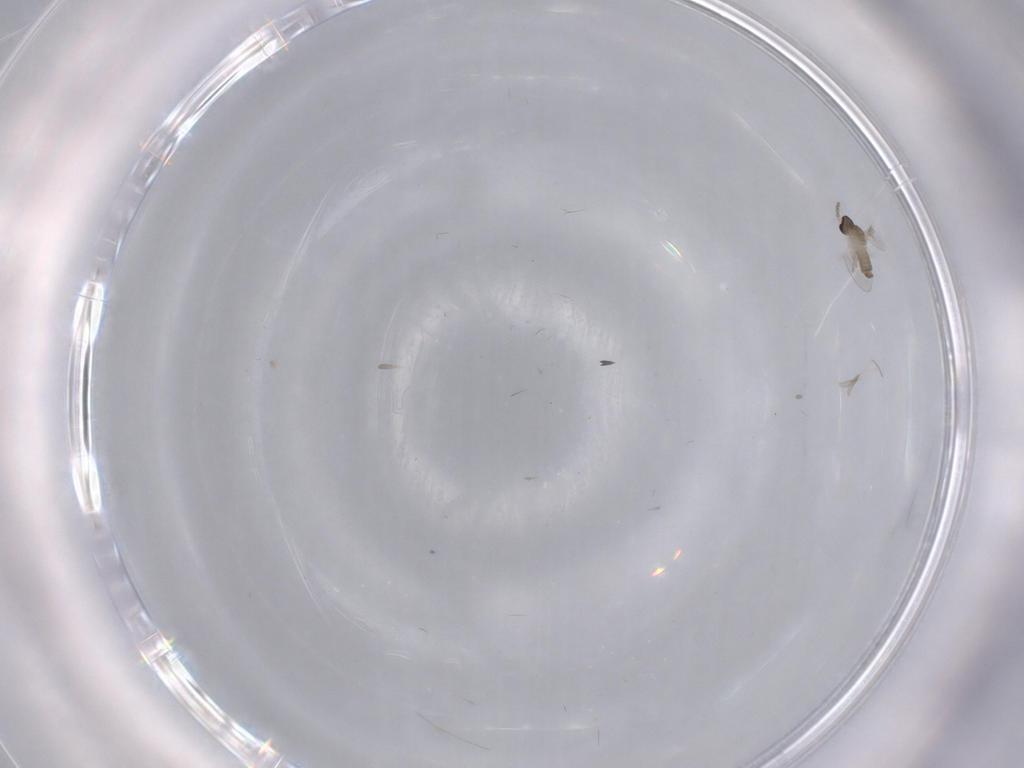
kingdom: Animalia
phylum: Arthropoda
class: Insecta
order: Diptera
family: Cecidomyiidae
